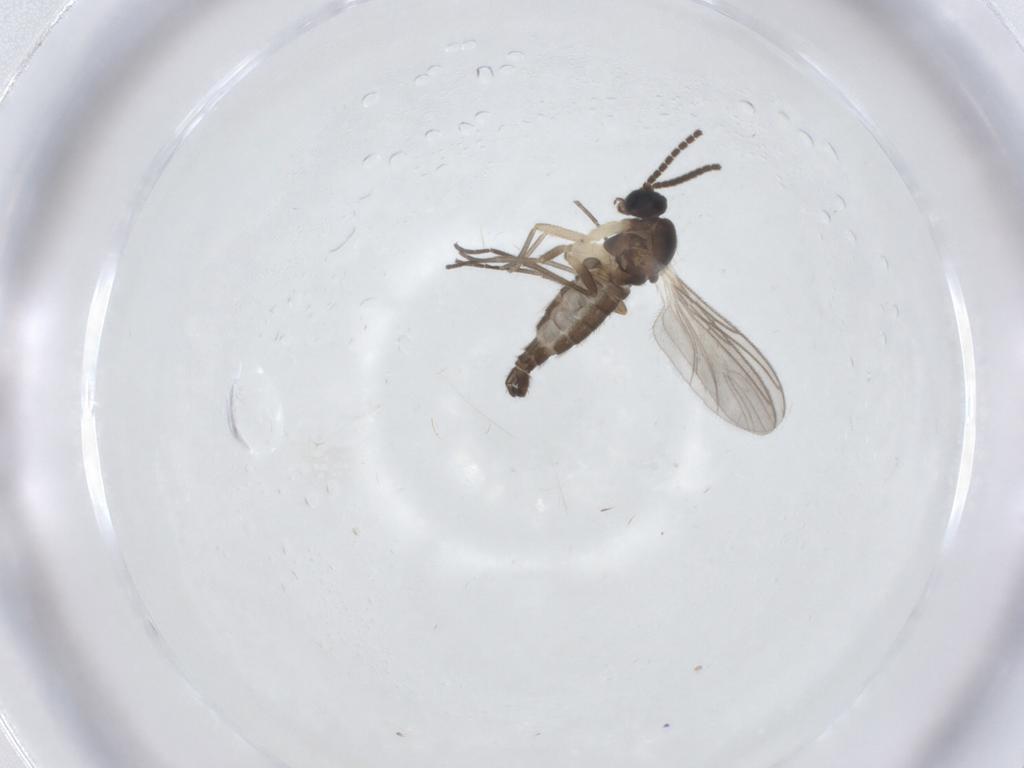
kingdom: Animalia
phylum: Arthropoda
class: Insecta
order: Diptera
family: Sciaridae
